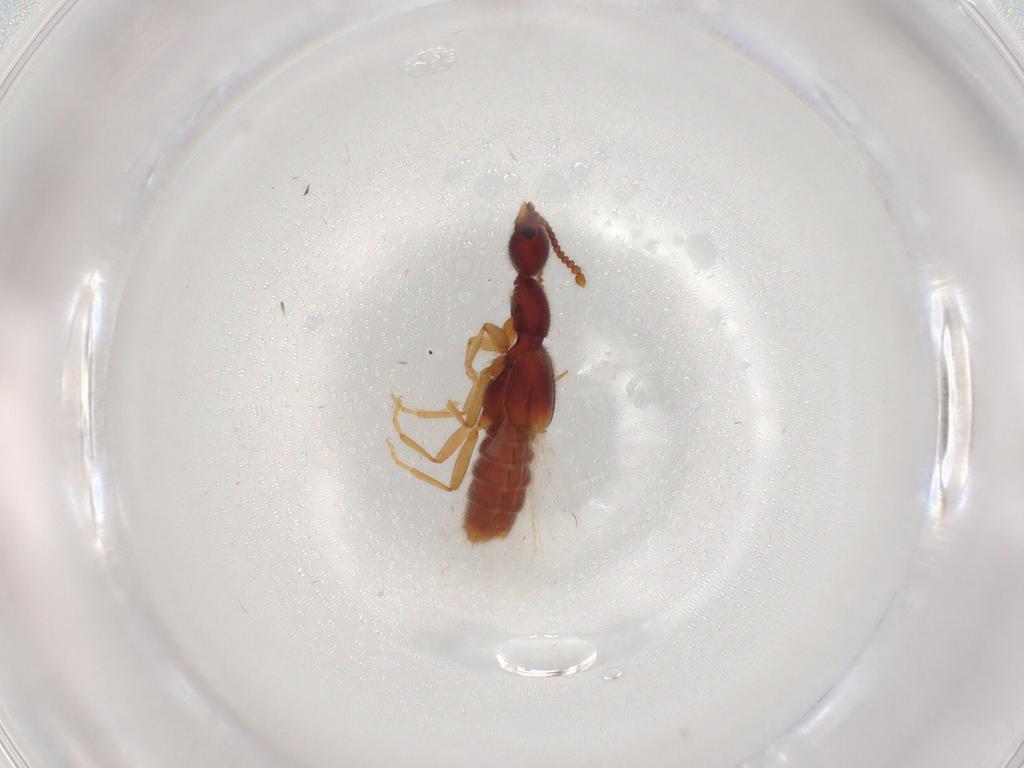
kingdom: Animalia
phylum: Arthropoda
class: Insecta
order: Coleoptera
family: Staphylinidae
